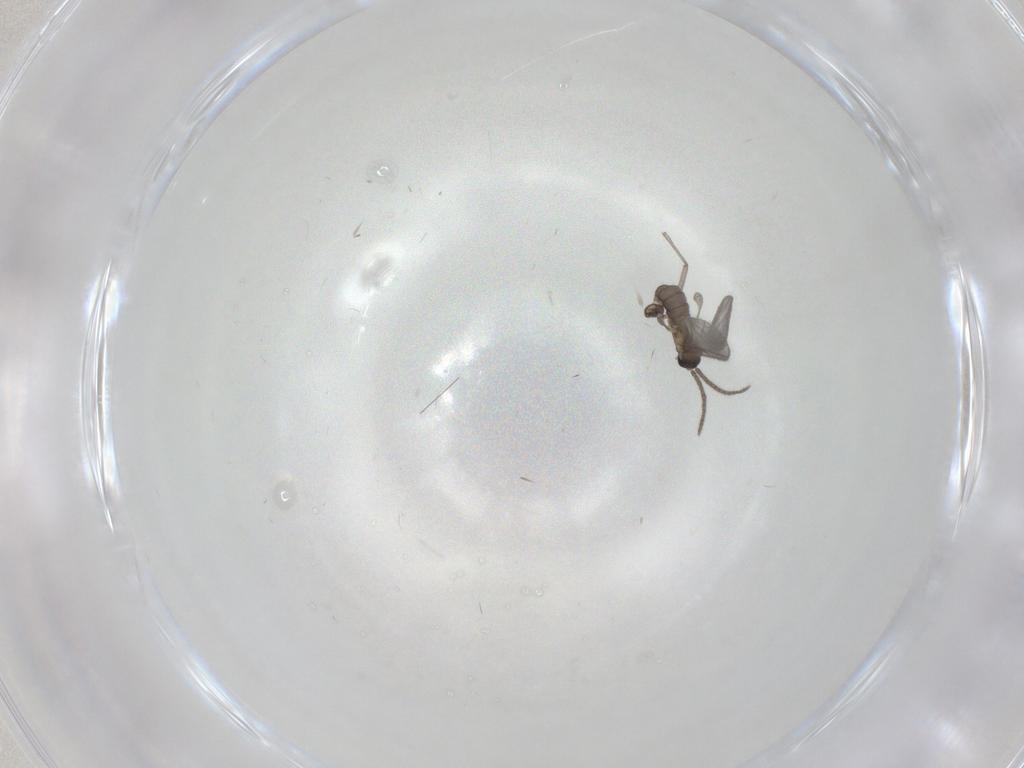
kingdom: Animalia
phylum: Arthropoda
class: Insecta
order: Diptera
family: Sciaridae
